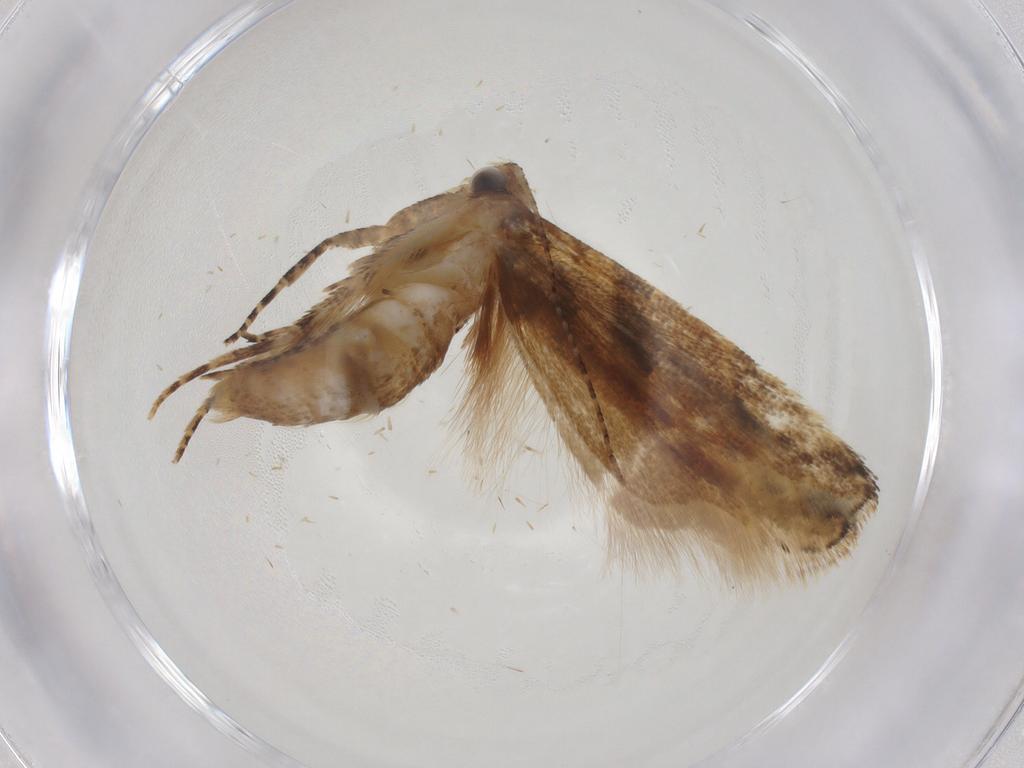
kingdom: Animalia
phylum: Arthropoda
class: Insecta
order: Lepidoptera
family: Gelechiidae
